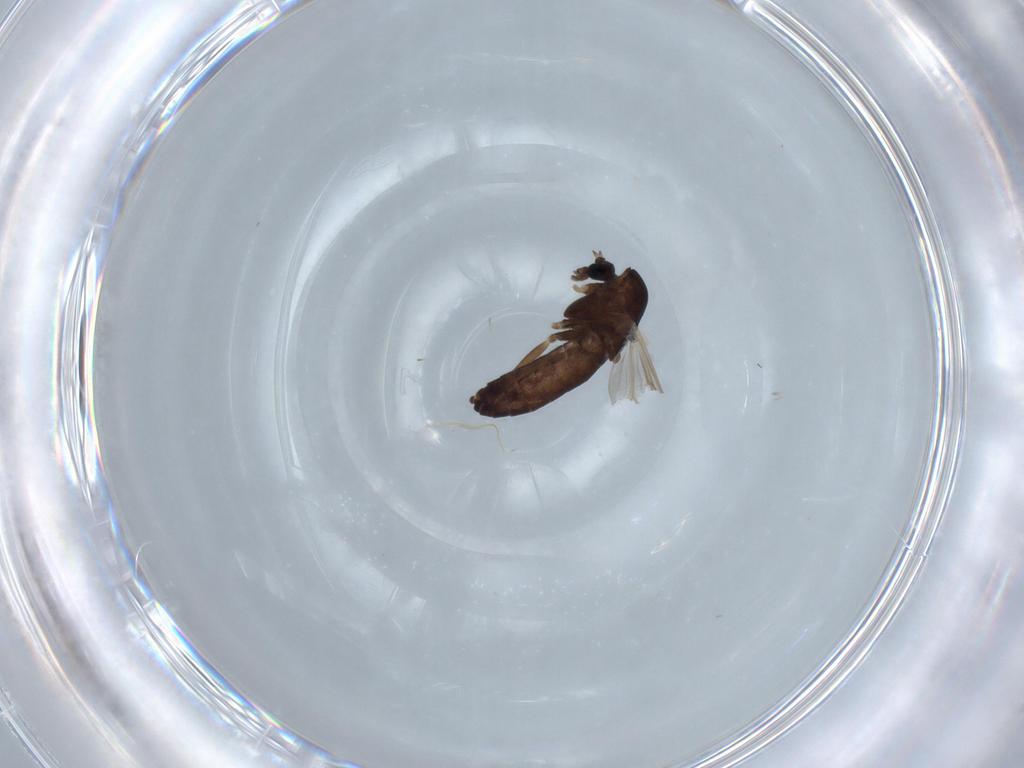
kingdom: Animalia
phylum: Arthropoda
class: Insecta
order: Diptera
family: Chironomidae
